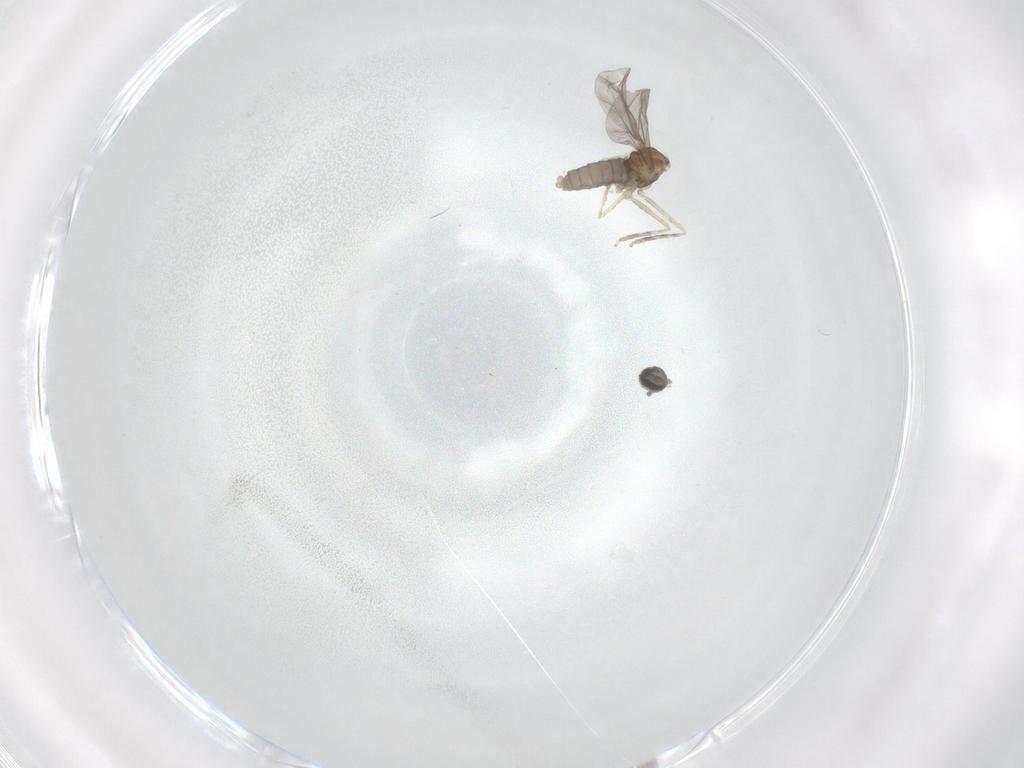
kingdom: Animalia
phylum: Arthropoda
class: Insecta
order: Diptera
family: Cecidomyiidae
